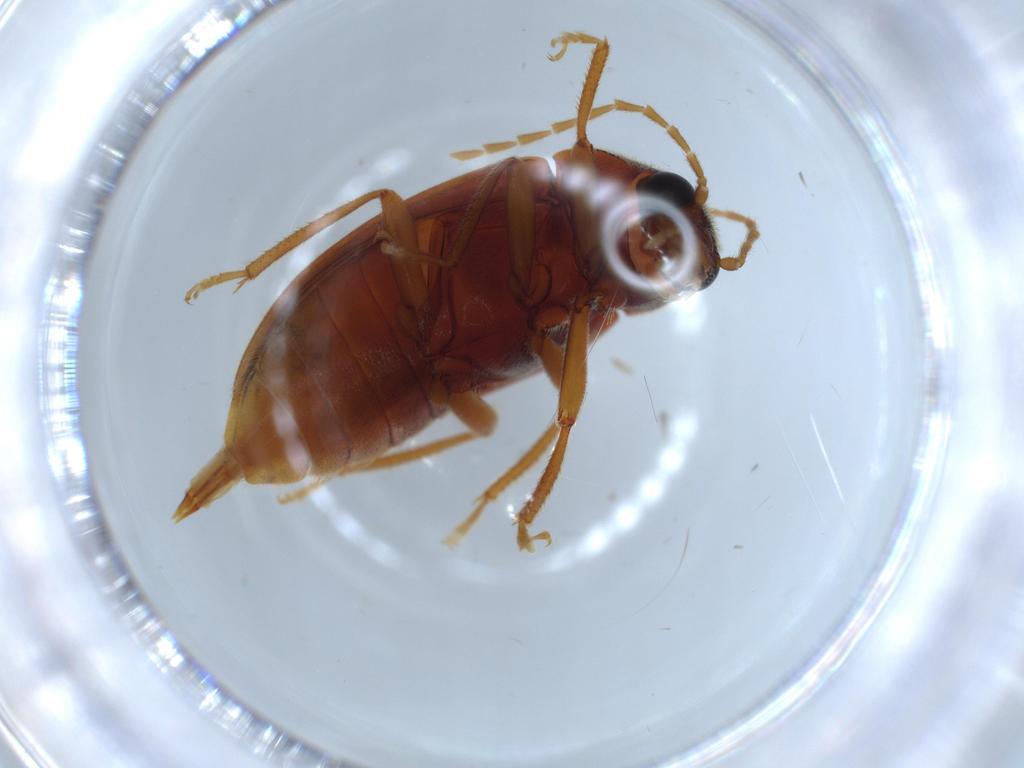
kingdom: Animalia
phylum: Arthropoda
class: Insecta
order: Coleoptera
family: Ptilodactylidae
